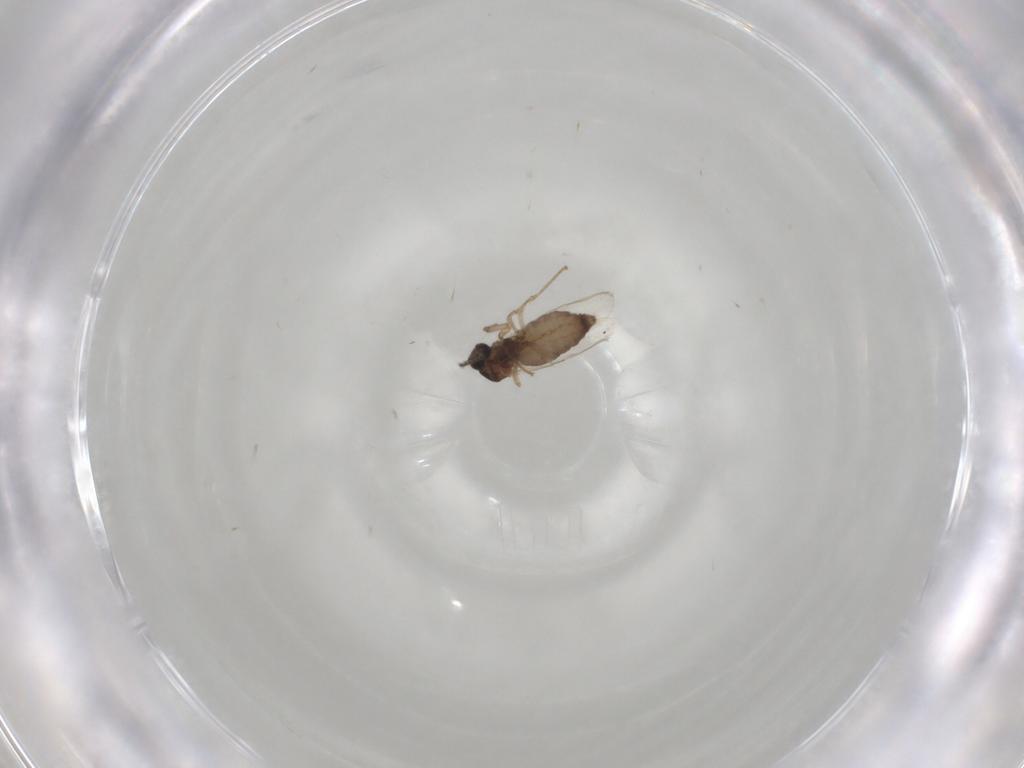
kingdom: Animalia
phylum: Arthropoda
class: Insecta
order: Diptera
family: Ceratopogonidae
